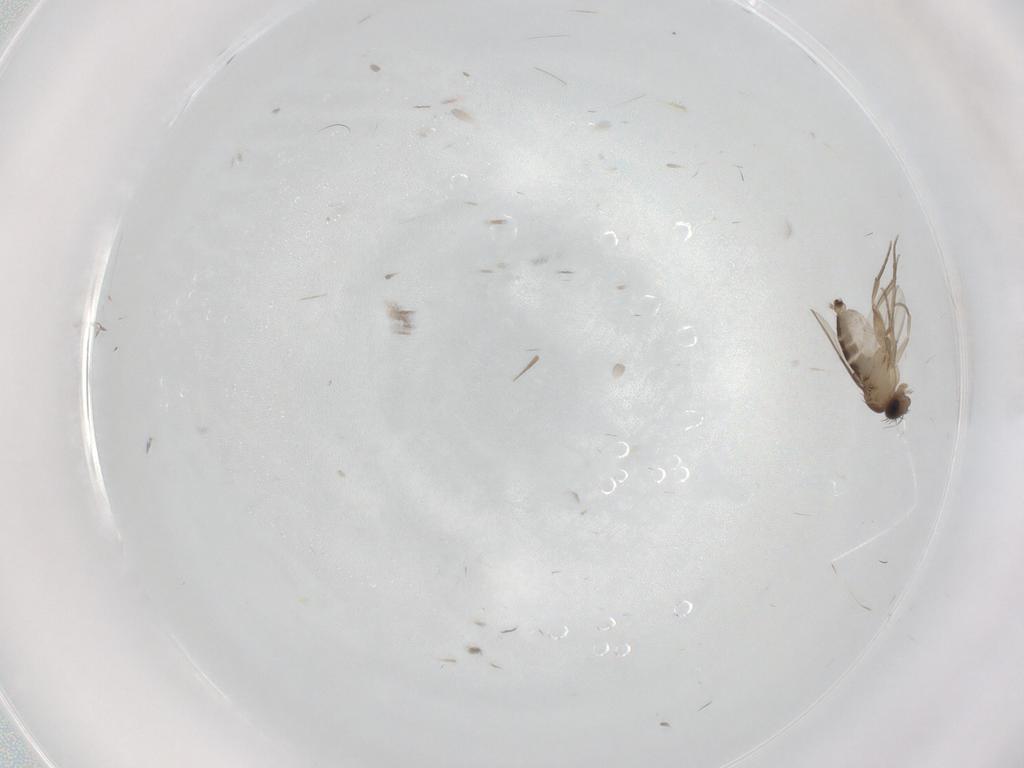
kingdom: Animalia
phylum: Arthropoda
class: Insecta
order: Diptera
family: Phoridae
